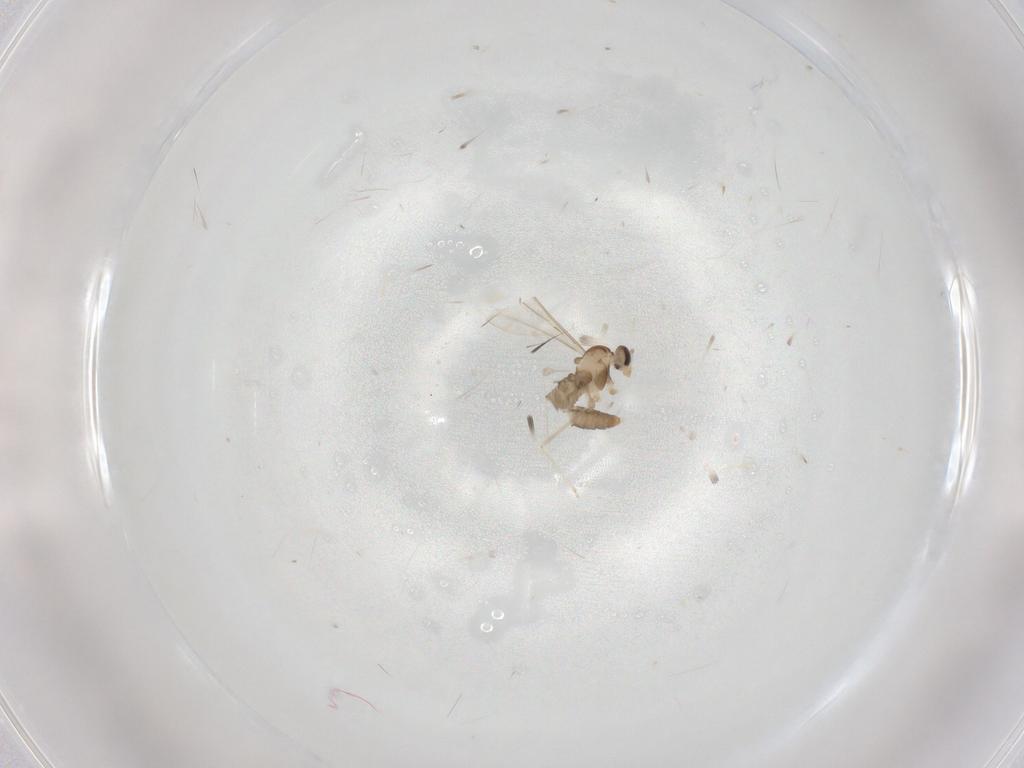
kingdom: Animalia
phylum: Arthropoda
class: Insecta
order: Diptera
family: Cecidomyiidae
